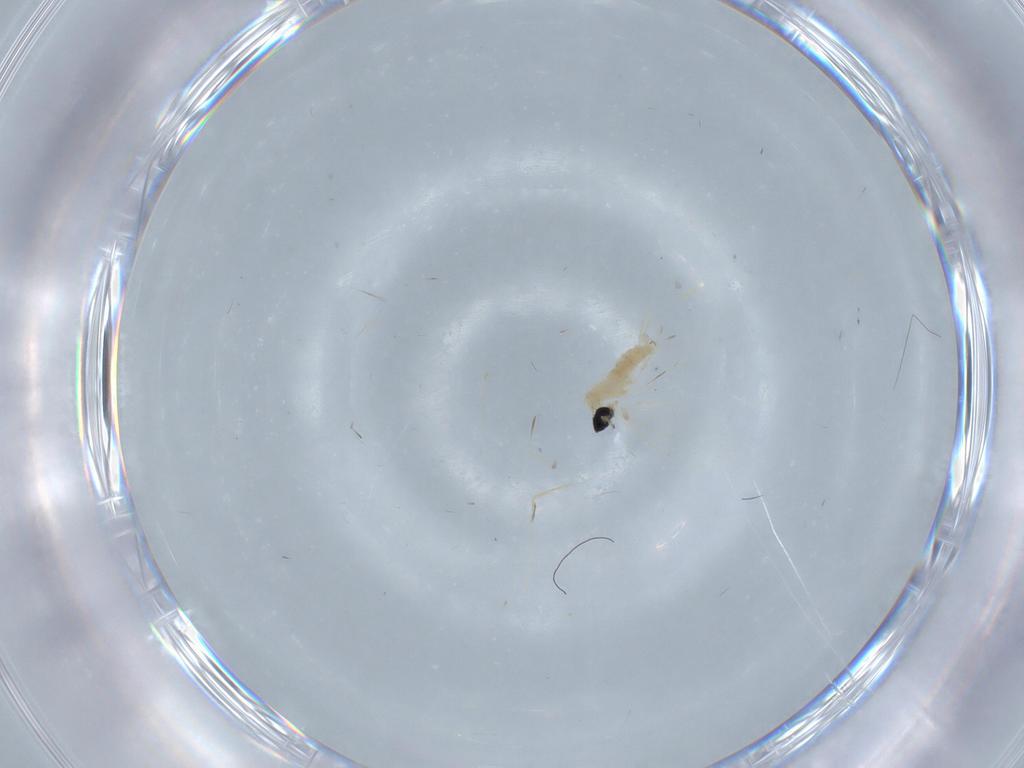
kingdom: Animalia
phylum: Arthropoda
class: Insecta
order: Diptera
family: Cecidomyiidae
